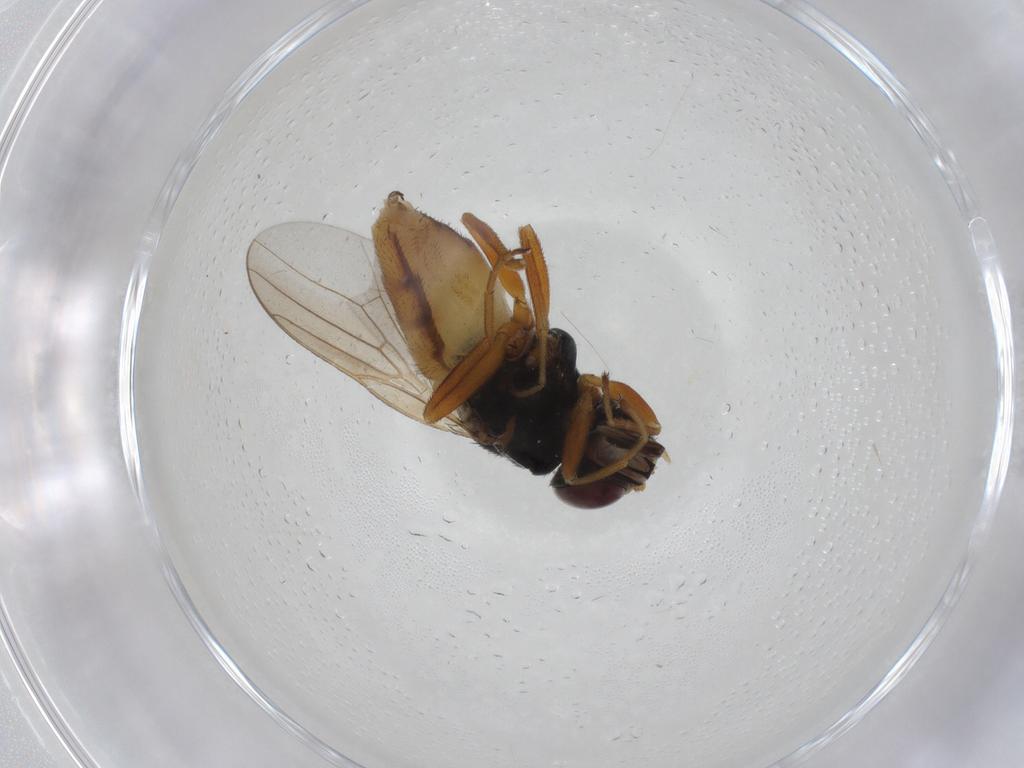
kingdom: Animalia
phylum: Arthropoda
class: Insecta
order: Diptera
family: Chloropidae
